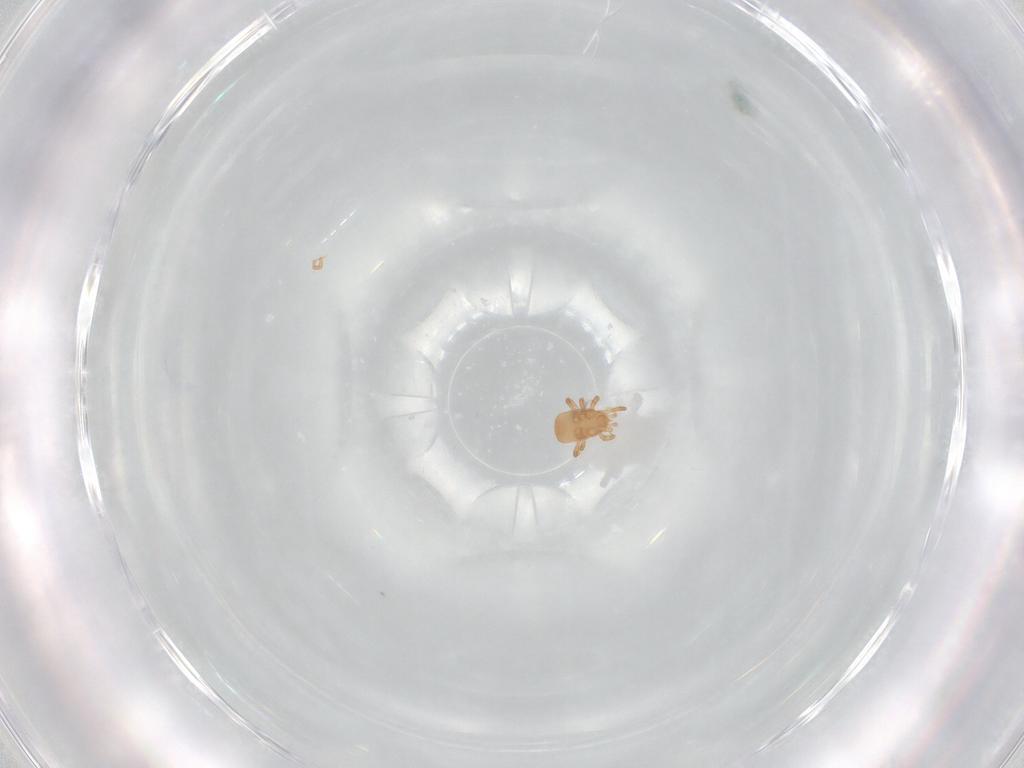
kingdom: Animalia
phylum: Arthropoda
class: Arachnida
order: Mesostigmata
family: Ascidae
